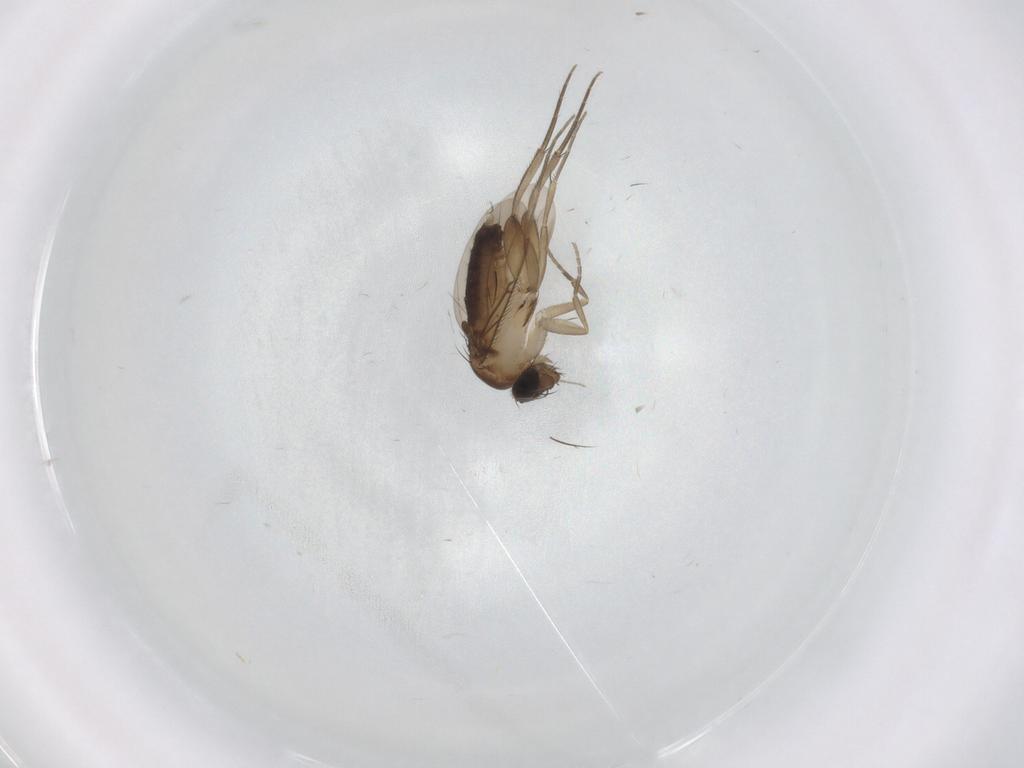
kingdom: Animalia
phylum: Arthropoda
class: Insecta
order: Diptera
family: Phoridae
